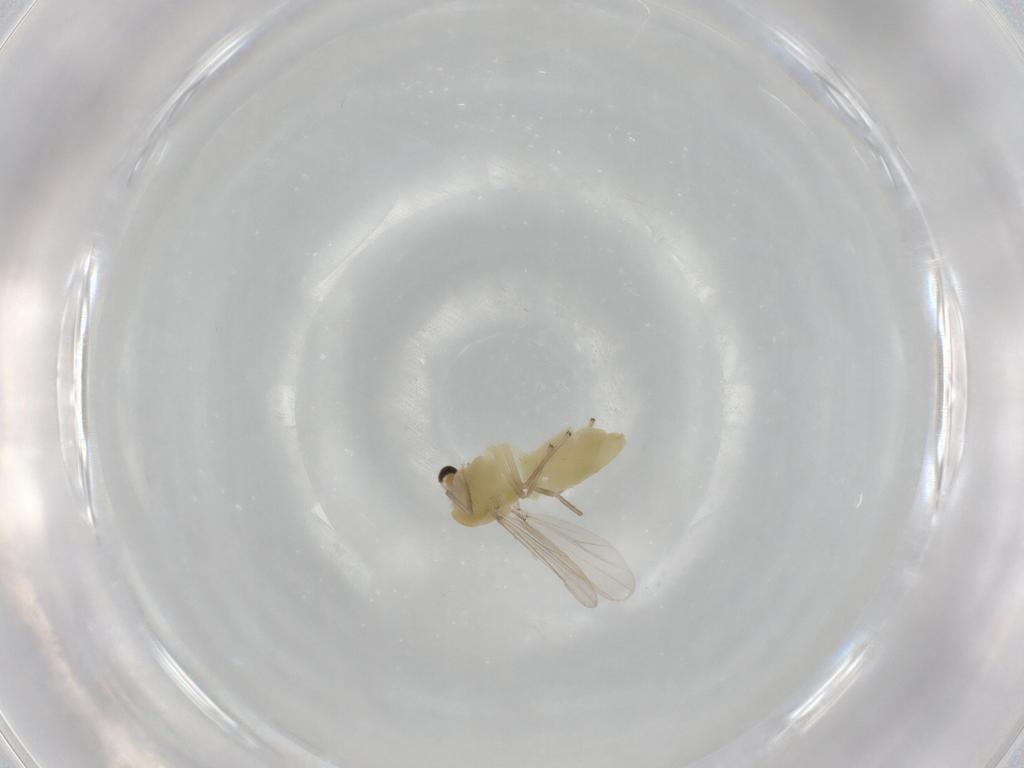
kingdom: Animalia
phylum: Arthropoda
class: Insecta
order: Diptera
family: Chironomidae
